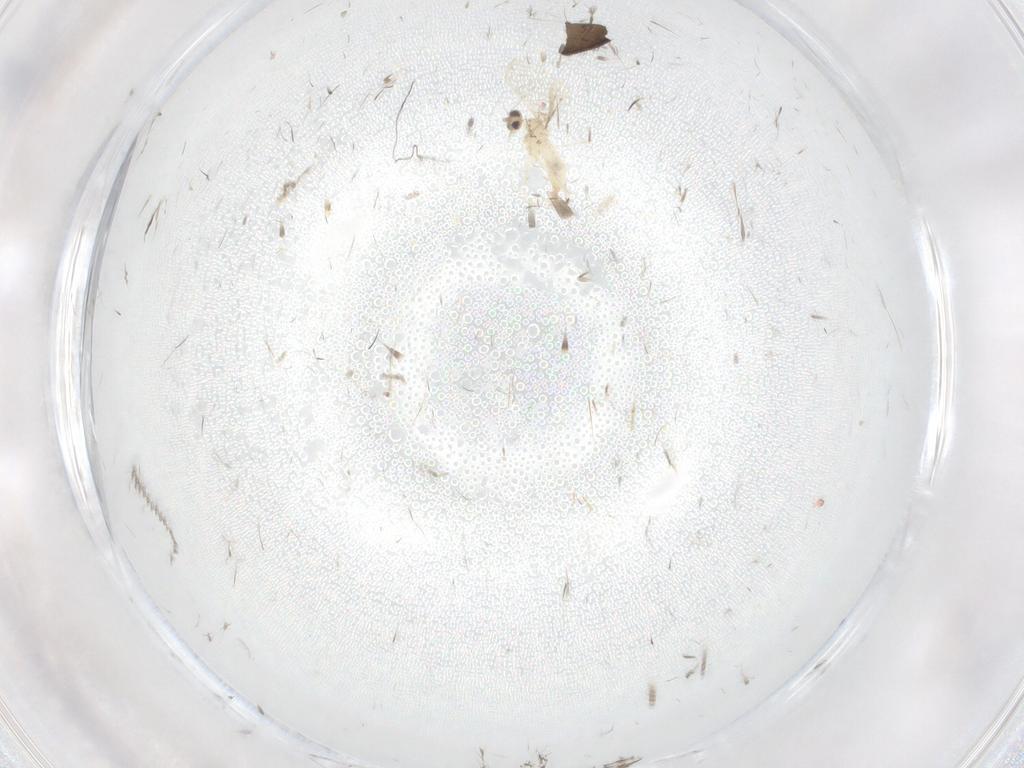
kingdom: Animalia
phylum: Arthropoda
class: Insecta
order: Diptera
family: Cecidomyiidae
